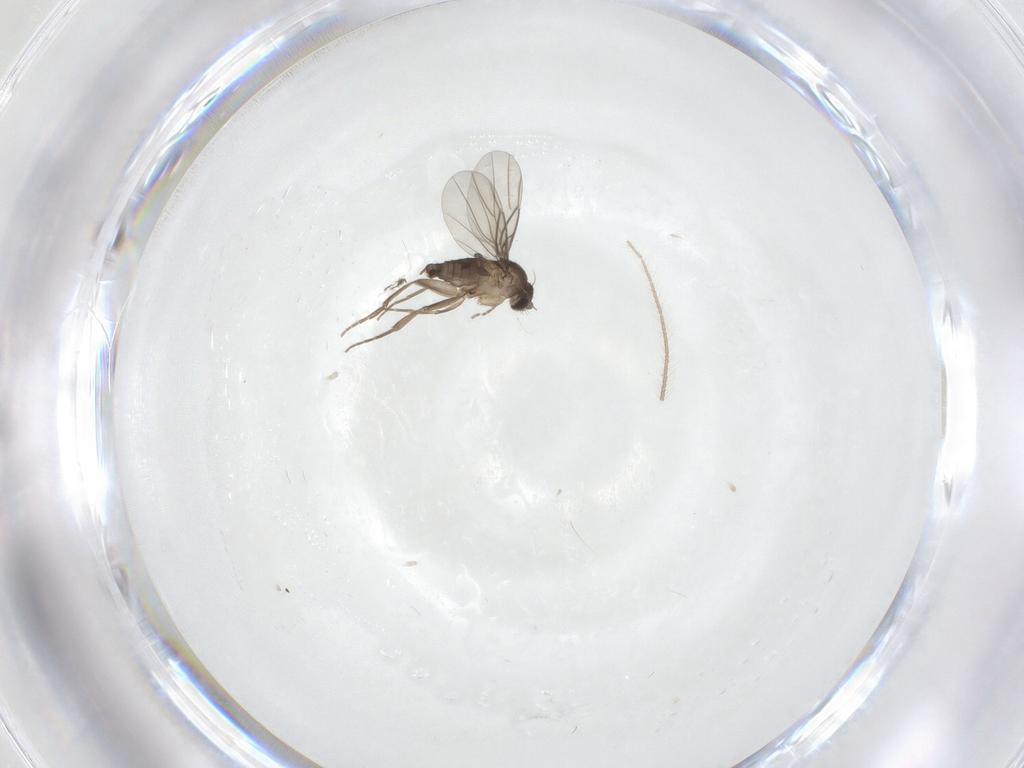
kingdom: Animalia
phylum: Arthropoda
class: Insecta
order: Diptera
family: Phoridae
